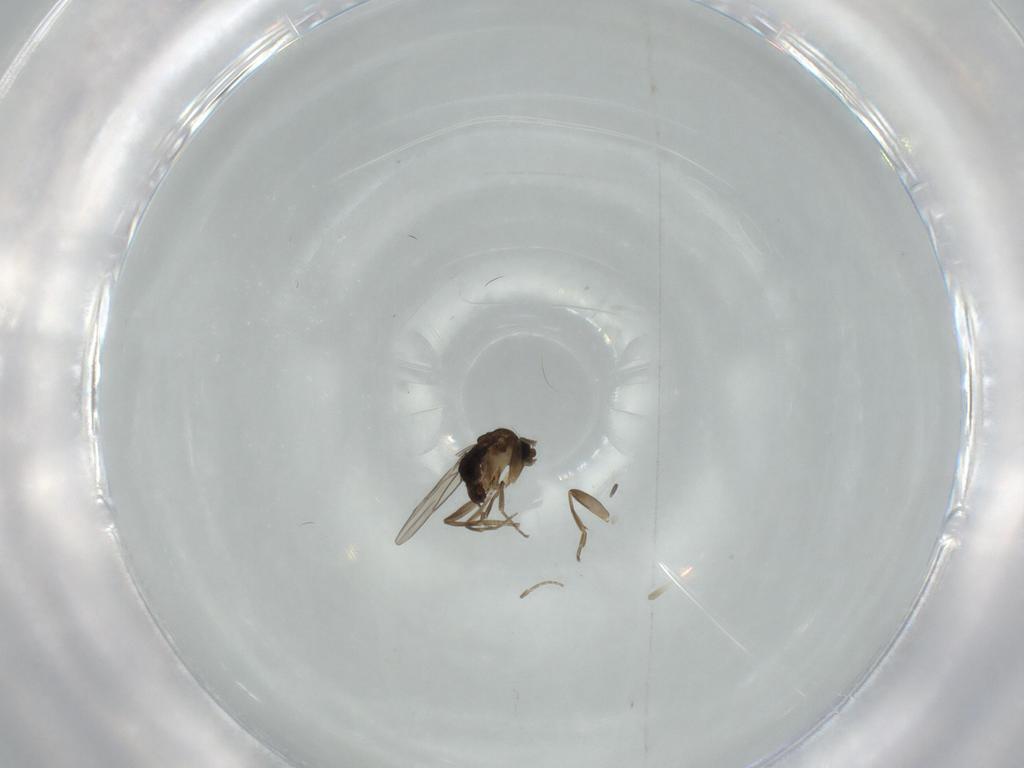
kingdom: Animalia
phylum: Arthropoda
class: Insecta
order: Diptera
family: Phoridae
